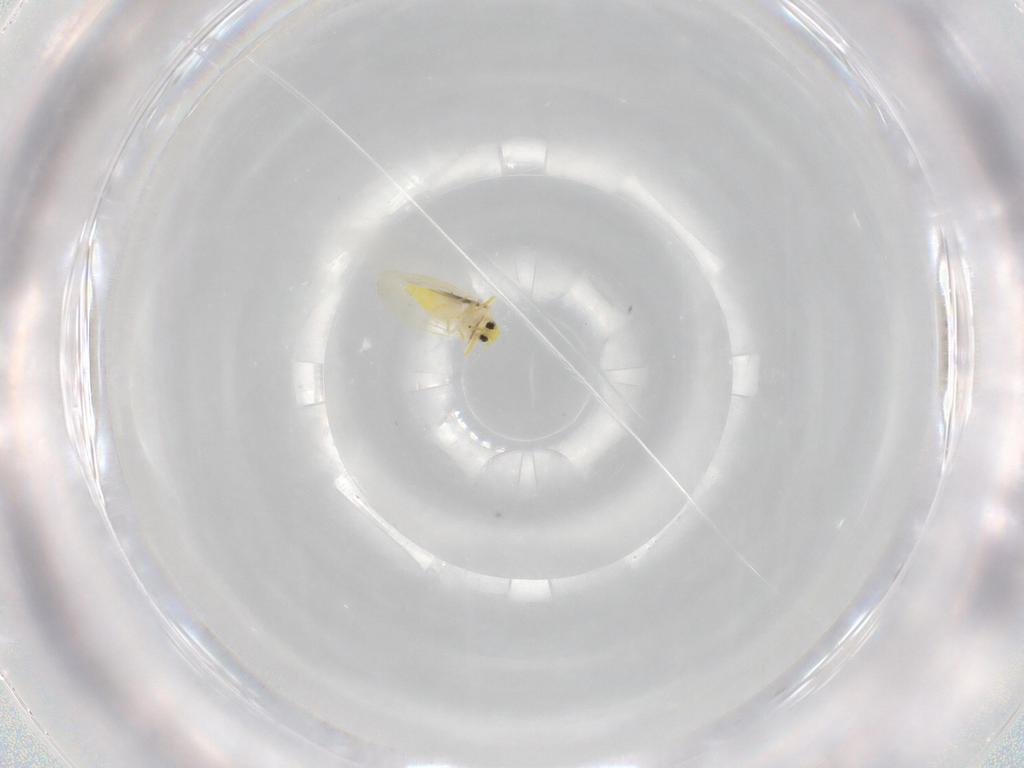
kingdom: Animalia
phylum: Arthropoda
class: Insecta
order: Hemiptera
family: Aleyrodidae
